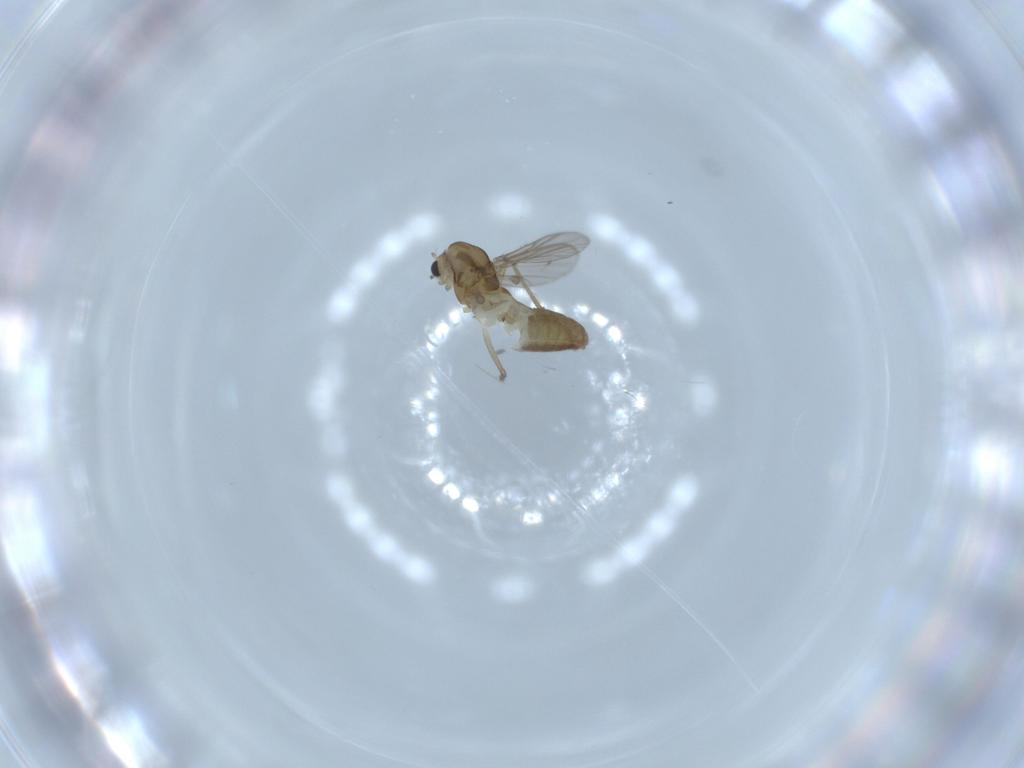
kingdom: Animalia
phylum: Arthropoda
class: Insecta
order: Diptera
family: Chironomidae
